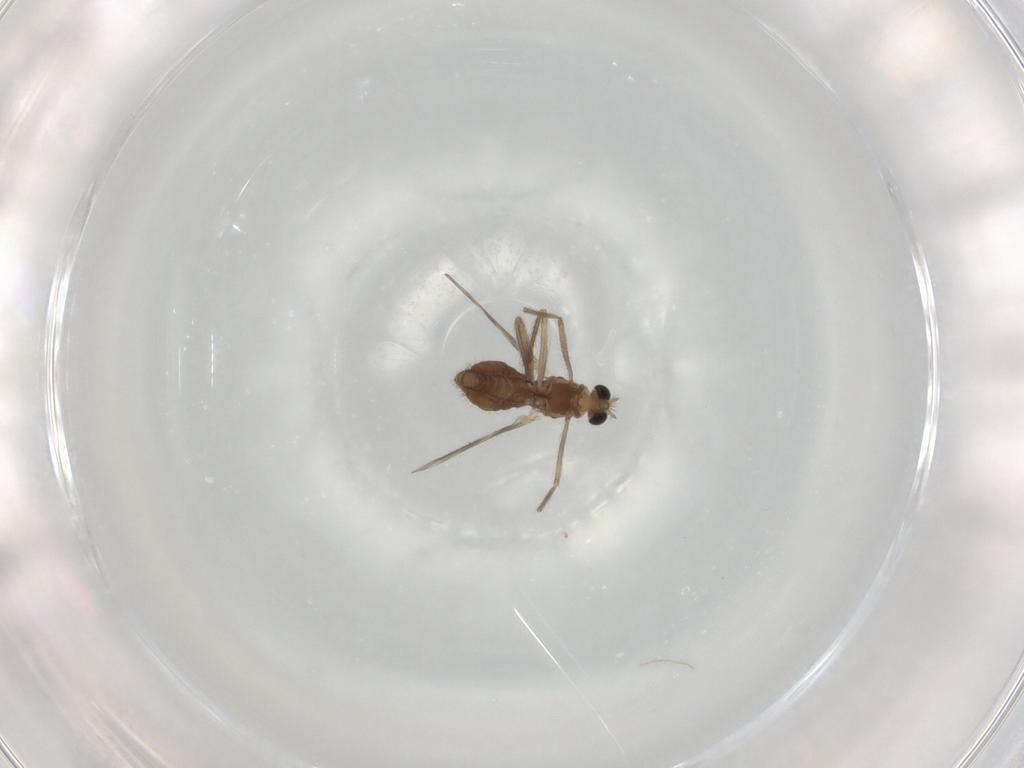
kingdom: Animalia
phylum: Arthropoda
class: Insecta
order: Diptera
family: Chironomidae
